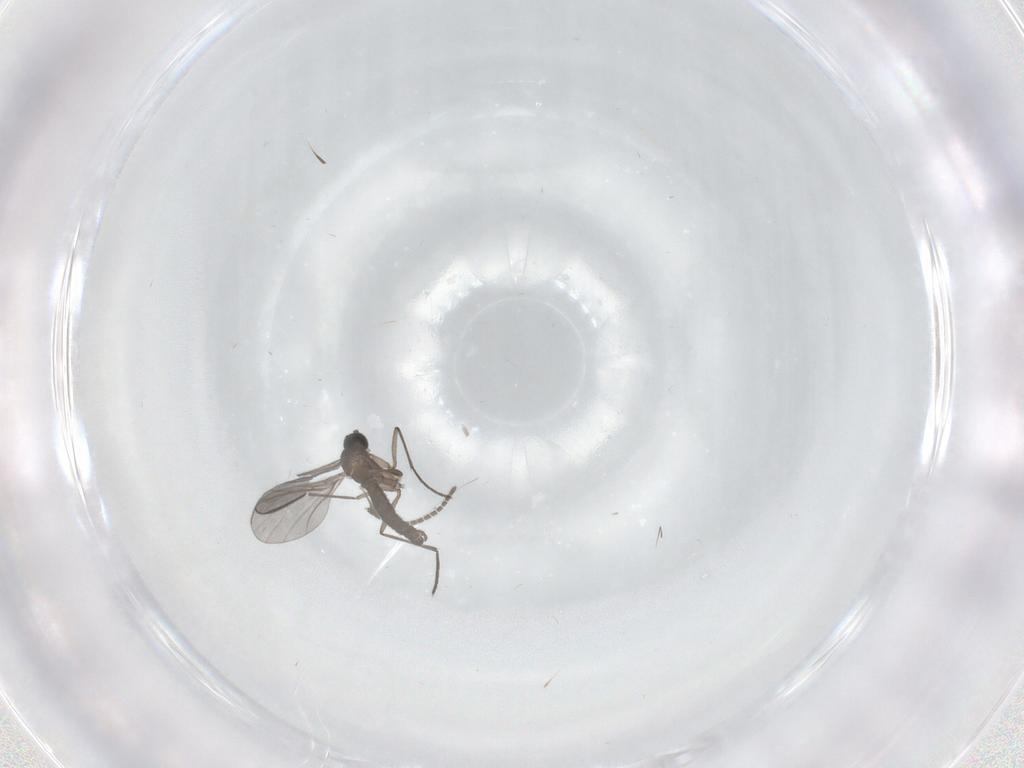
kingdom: Animalia
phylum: Arthropoda
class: Insecta
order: Diptera
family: Sciaridae
